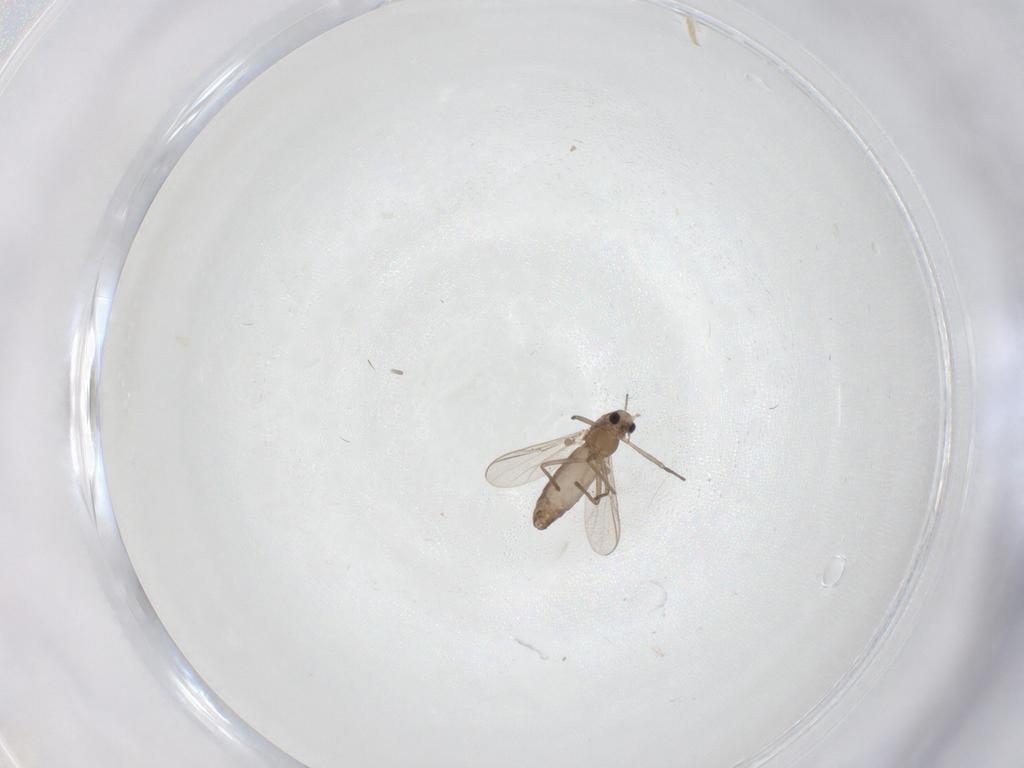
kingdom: Animalia
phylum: Arthropoda
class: Insecta
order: Diptera
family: Chironomidae
